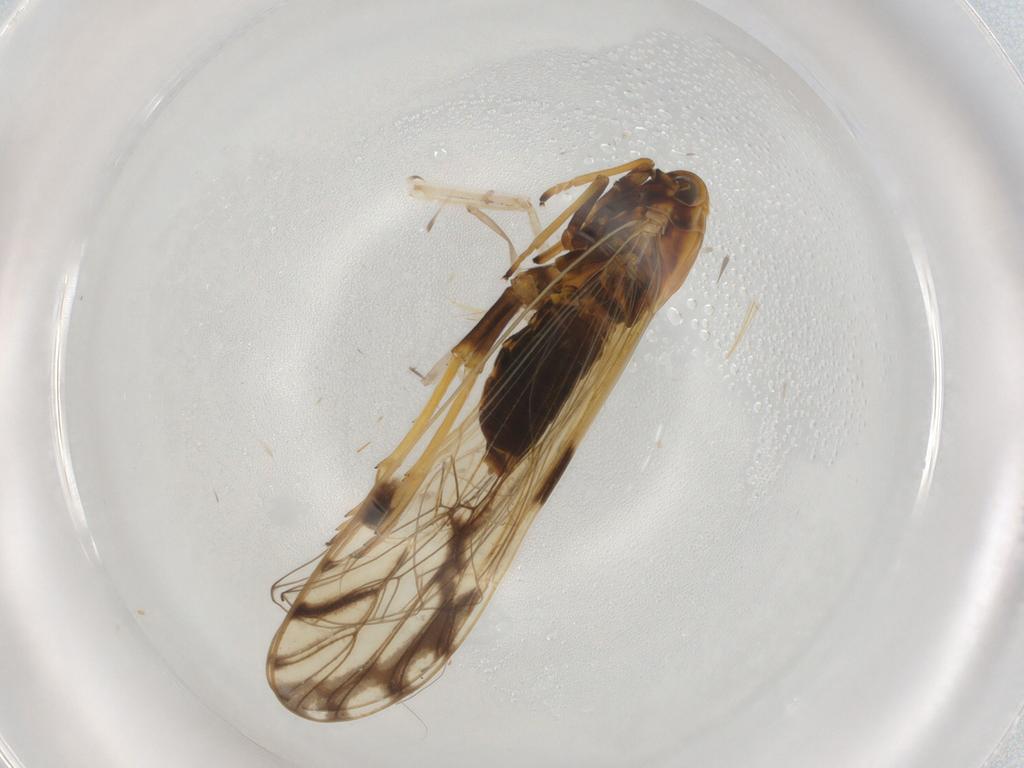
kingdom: Animalia
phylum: Arthropoda
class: Insecta
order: Hemiptera
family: Delphacidae
